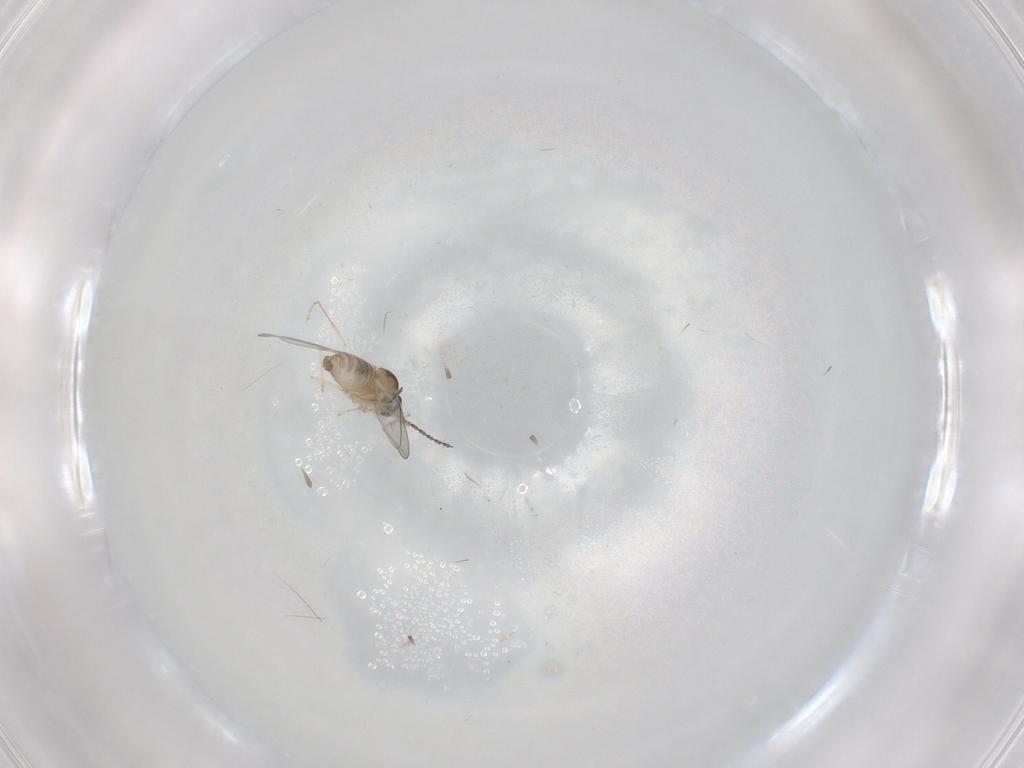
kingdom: Animalia
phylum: Arthropoda
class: Insecta
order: Diptera
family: Cecidomyiidae
